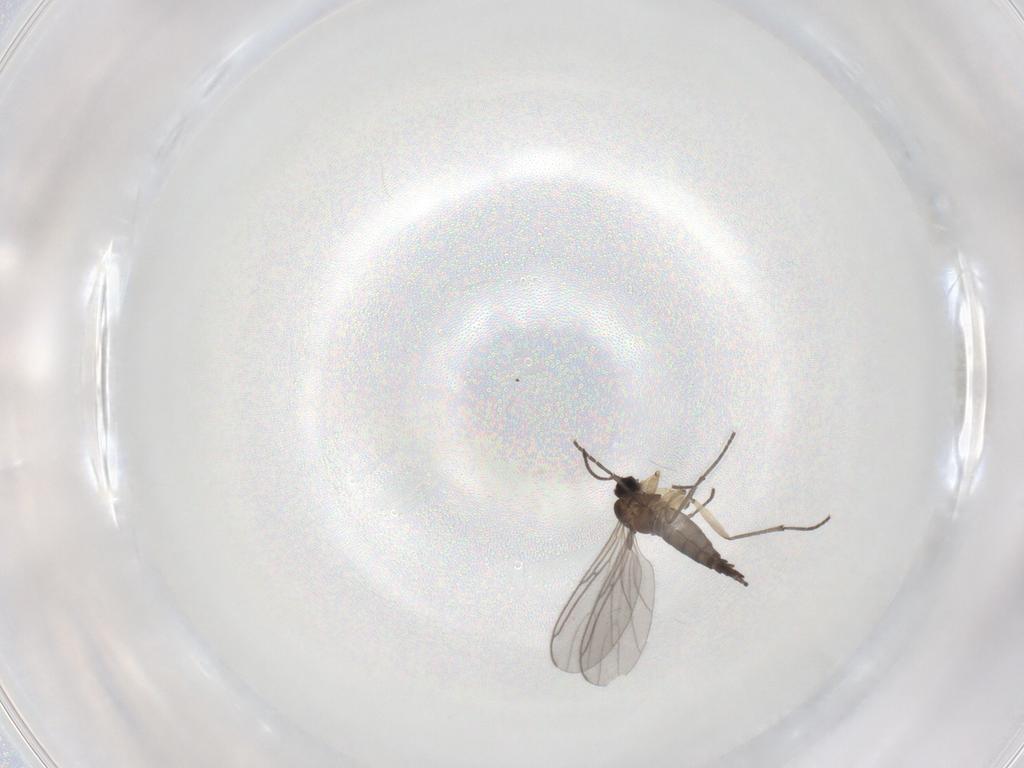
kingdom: Animalia
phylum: Arthropoda
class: Insecta
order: Diptera
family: Sciaridae
